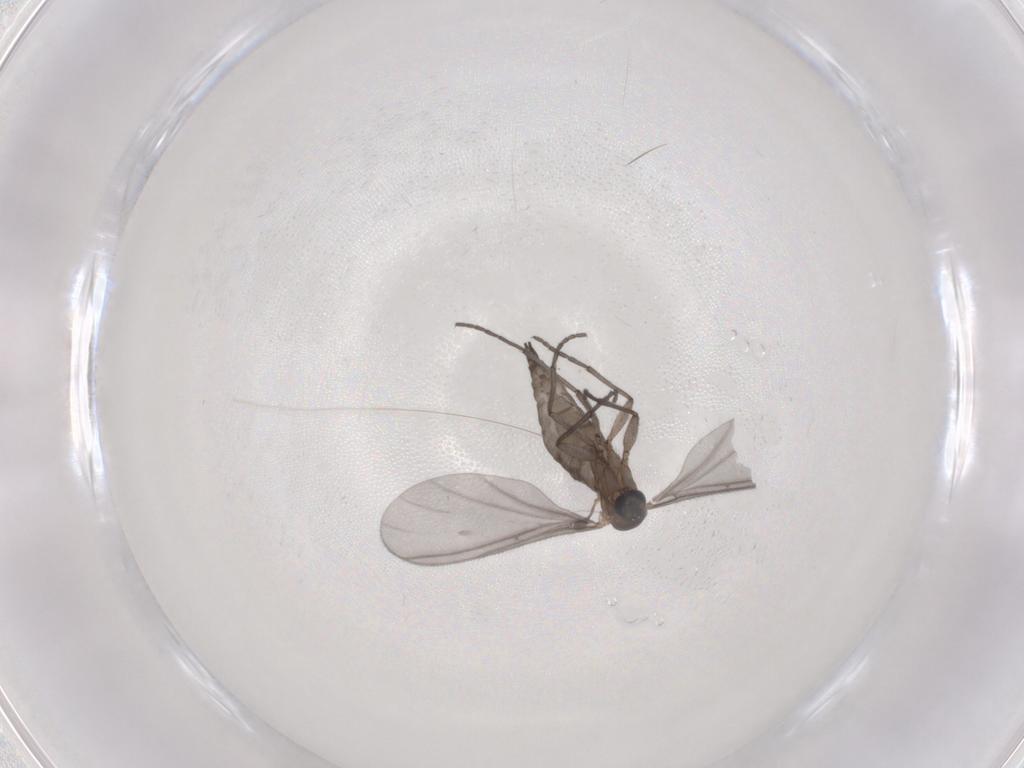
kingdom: Animalia
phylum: Arthropoda
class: Insecta
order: Diptera
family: Sciaridae
